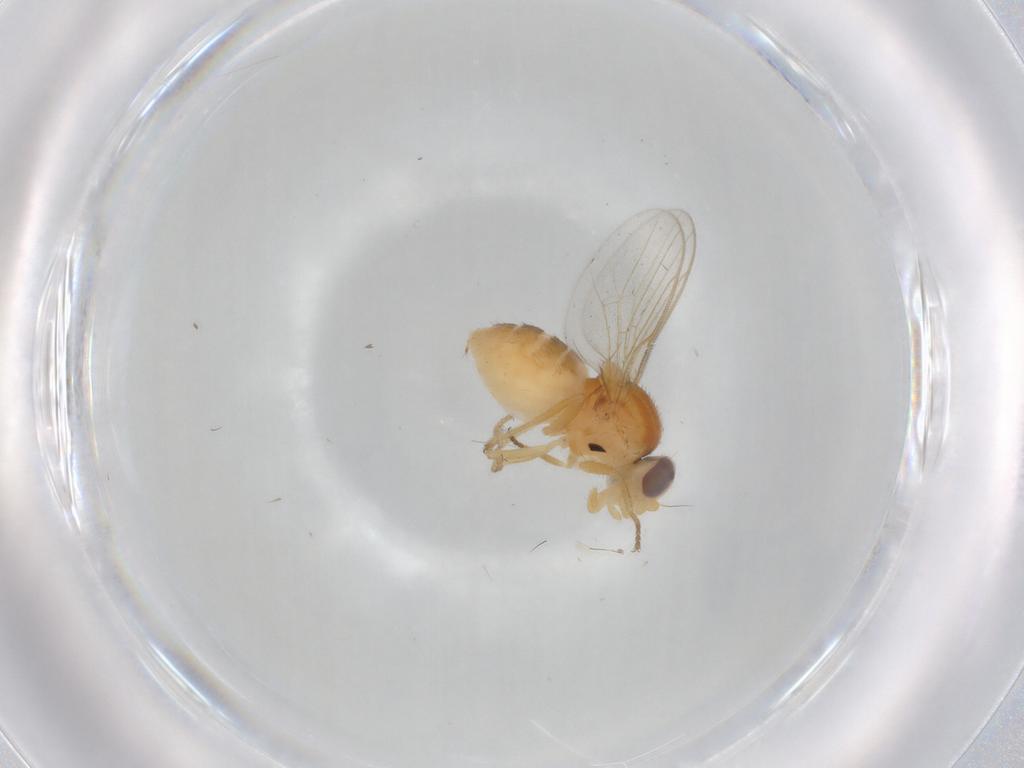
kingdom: Animalia
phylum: Arthropoda
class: Insecta
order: Diptera
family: Chloropidae
